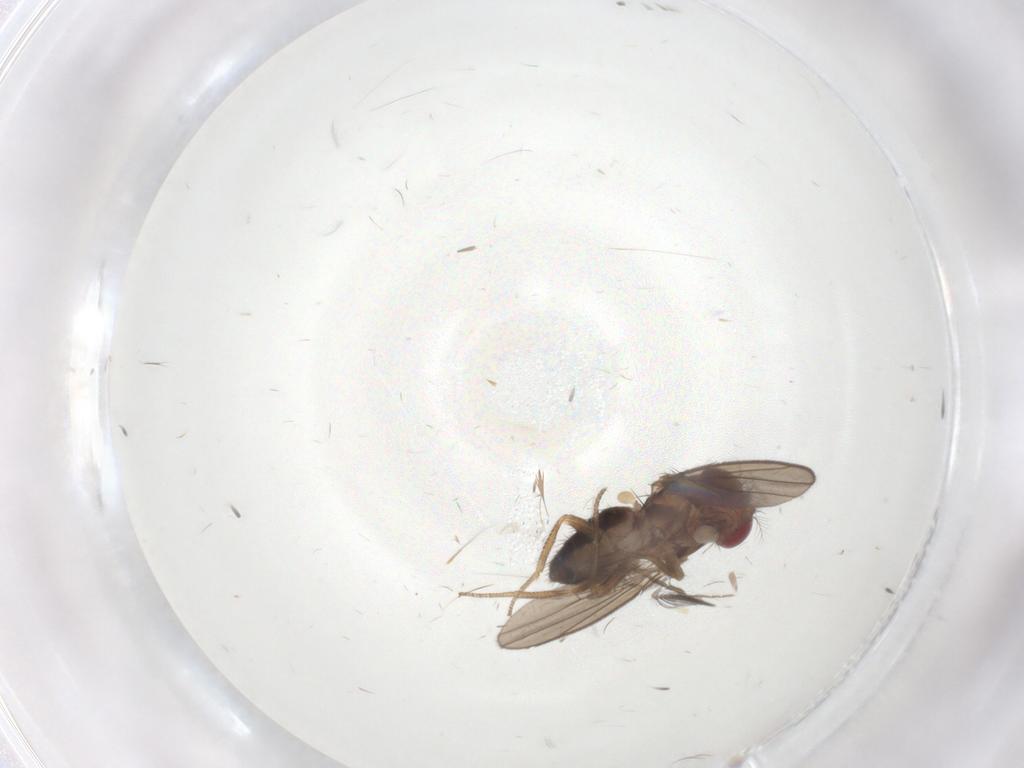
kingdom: Animalia
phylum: Arthropoda
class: Insecta
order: Diptera
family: Drosophilidae
